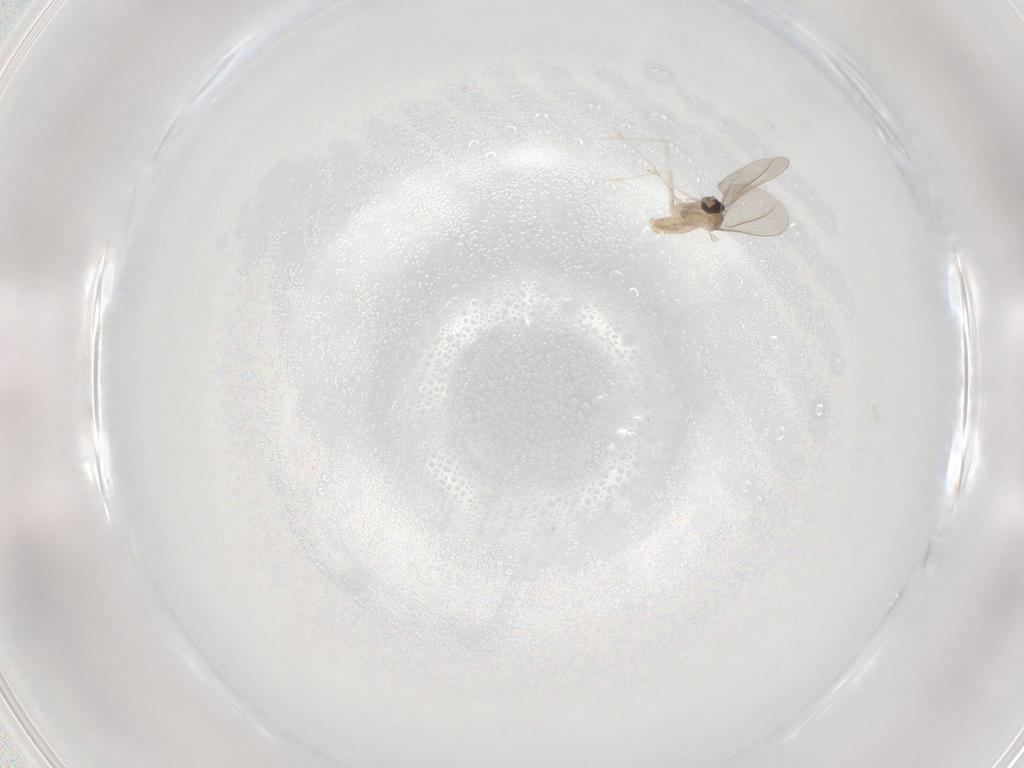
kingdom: Animalia
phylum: Arthropoda
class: Insecta
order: Diptera
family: Cecidomyiidae
